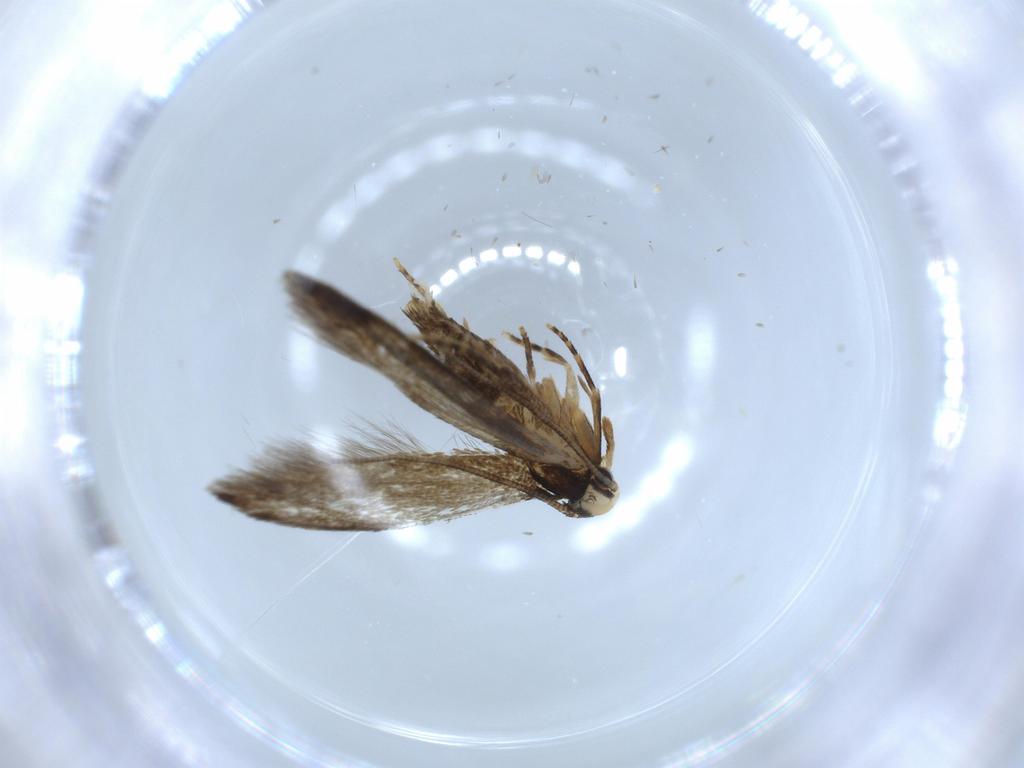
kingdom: Animalia
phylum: Arthropoda
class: Insecta
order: Lepidoptera
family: Tineidae
